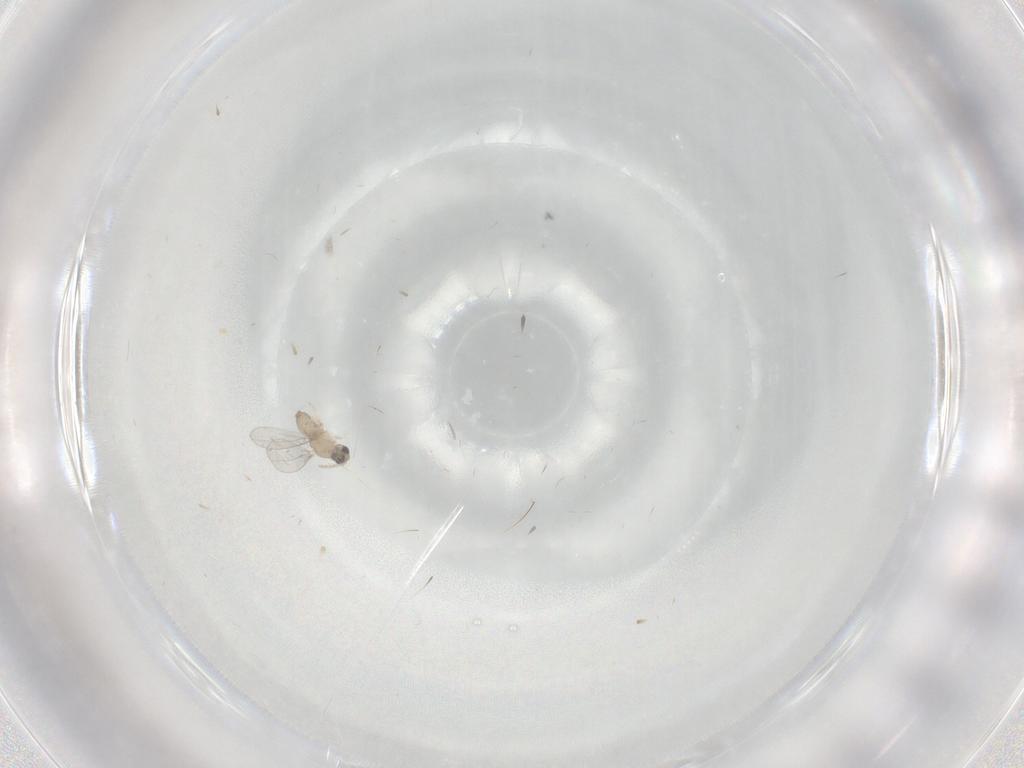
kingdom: Animalia
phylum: Arthropoda
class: Insecta
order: Diptera
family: Cecidomyiidae
